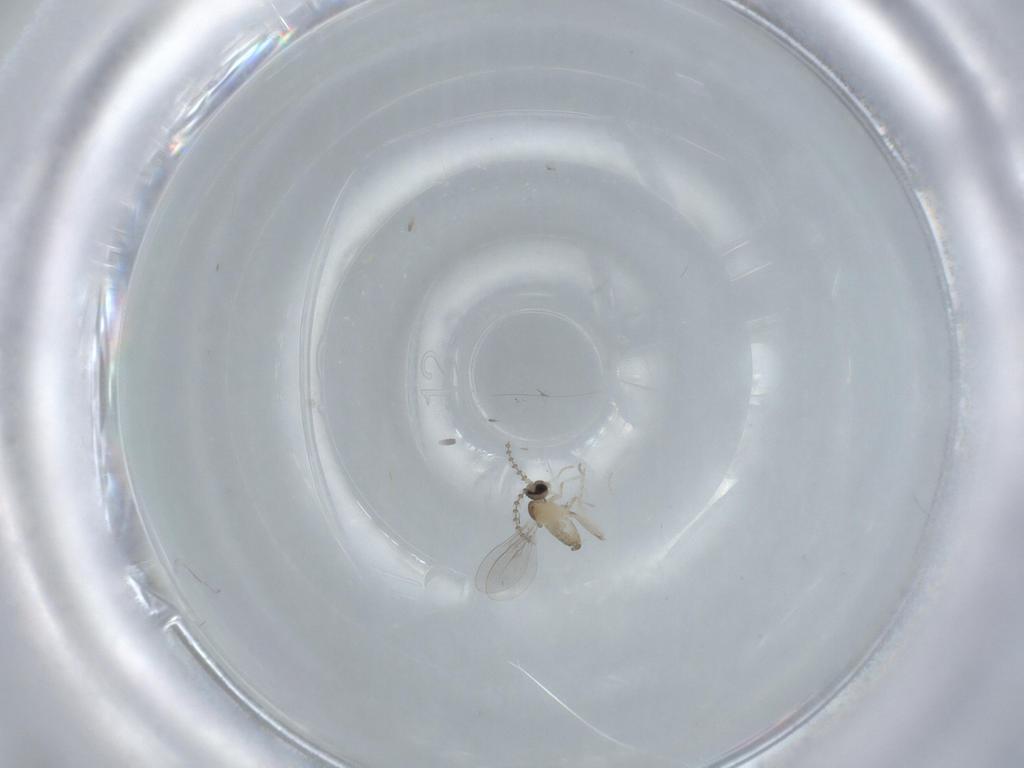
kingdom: Animalia
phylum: Arthropoda
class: Insecta
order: Diptera
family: Cecidomyiidae
